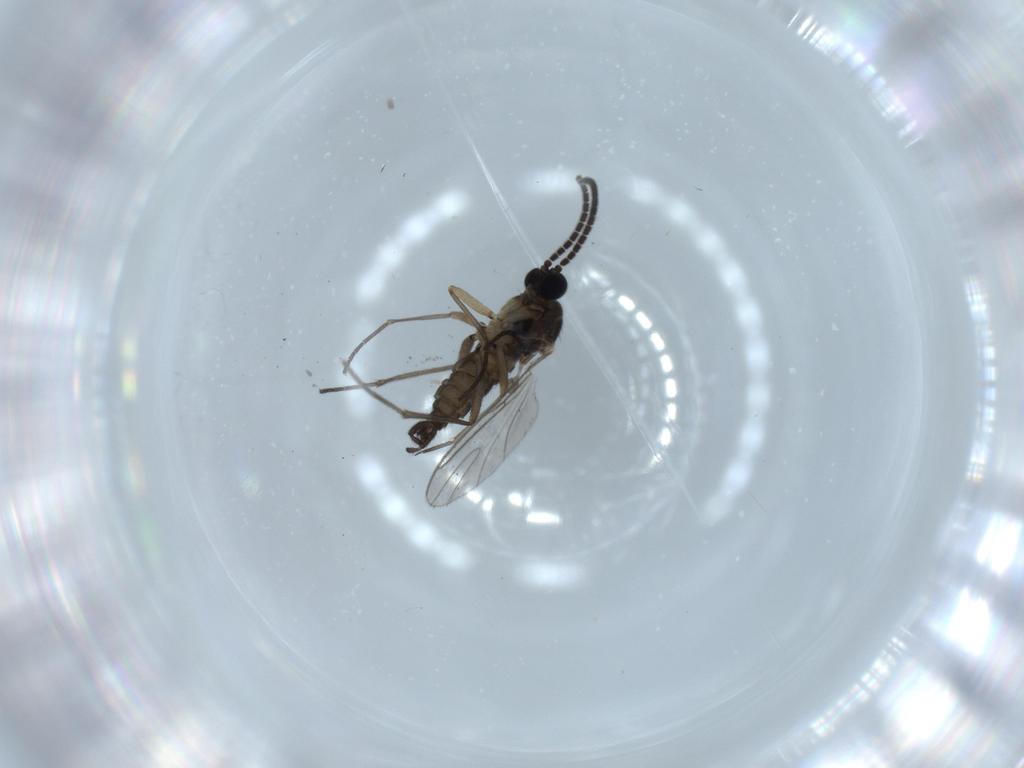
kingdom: Animalia
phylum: Arthropoda
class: Insecta
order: Diptera
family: Sciaridae
